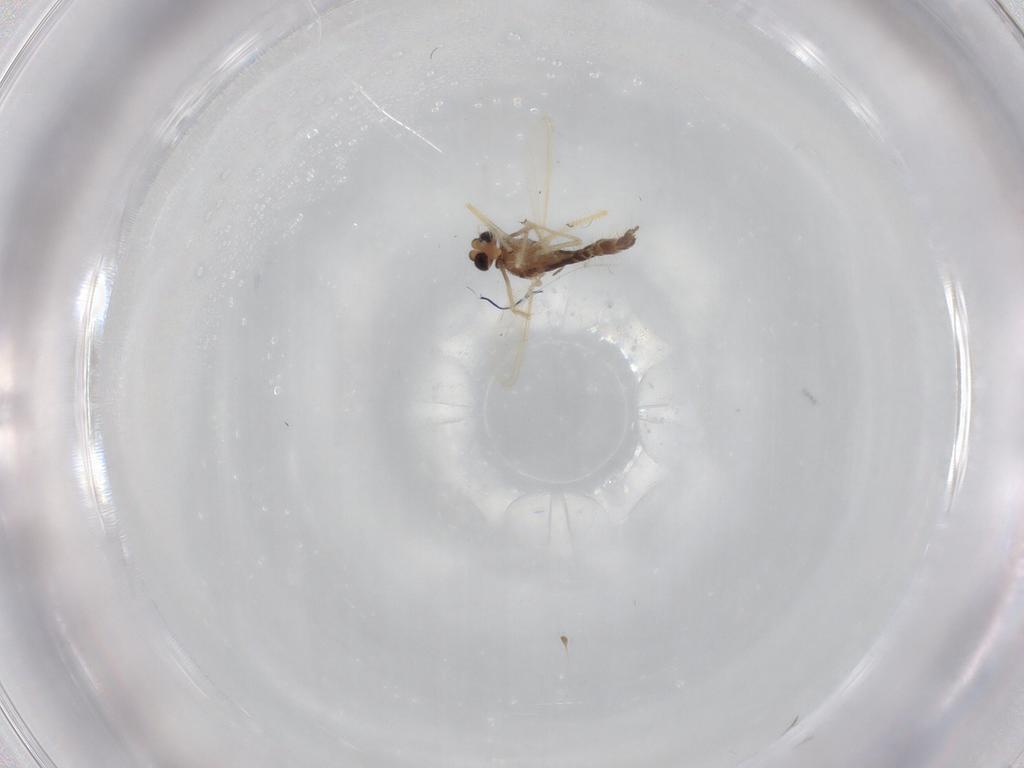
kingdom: Animalia
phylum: Arthropoda
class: Insecta
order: Diptera
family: Chironomidae
